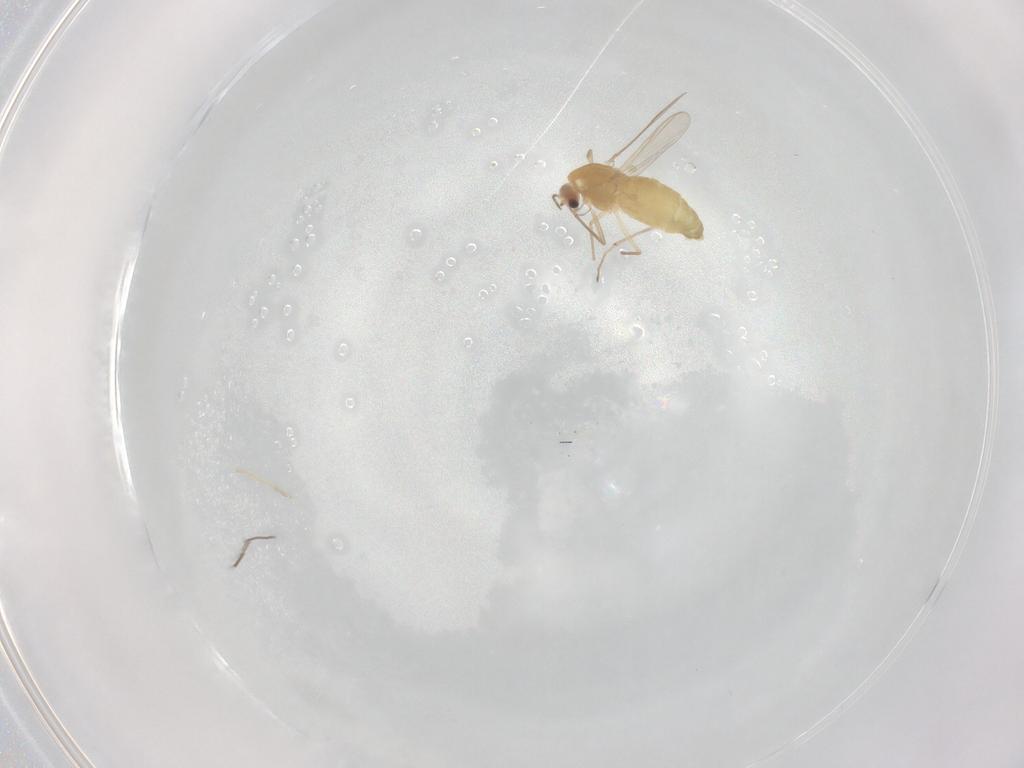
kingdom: Animalia
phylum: Arthropoda
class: Insecta
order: Diptera
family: Chironomidae
